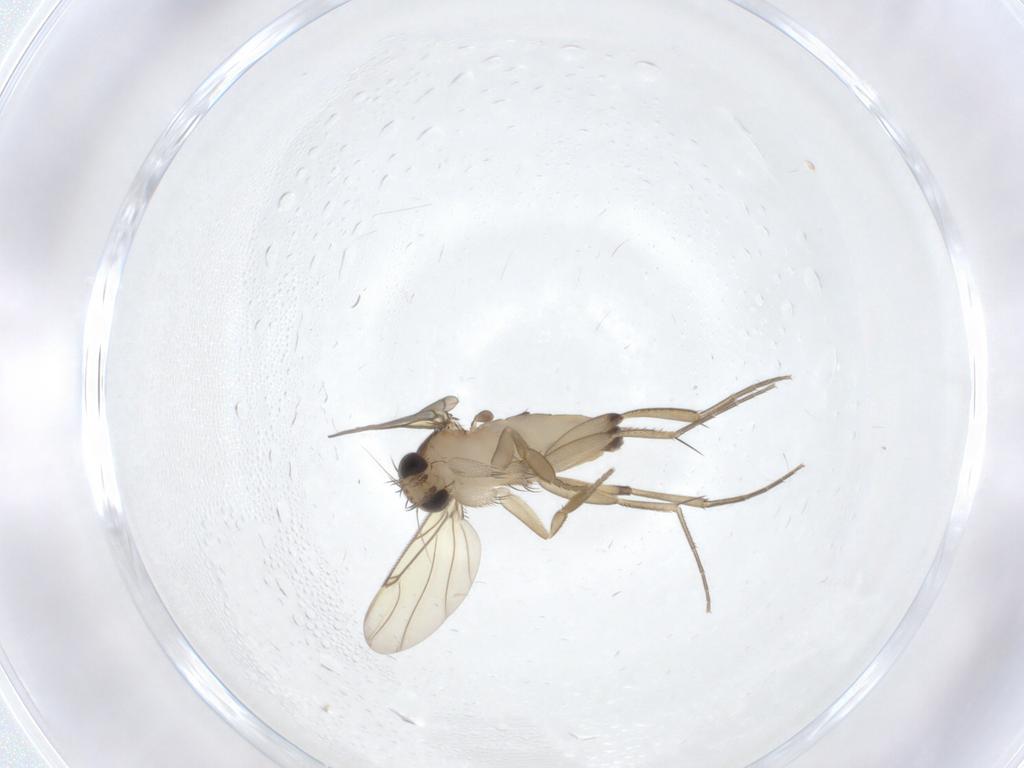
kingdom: Animalia
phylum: Arthropoda
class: Insecta
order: Diptera
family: Phoridae
